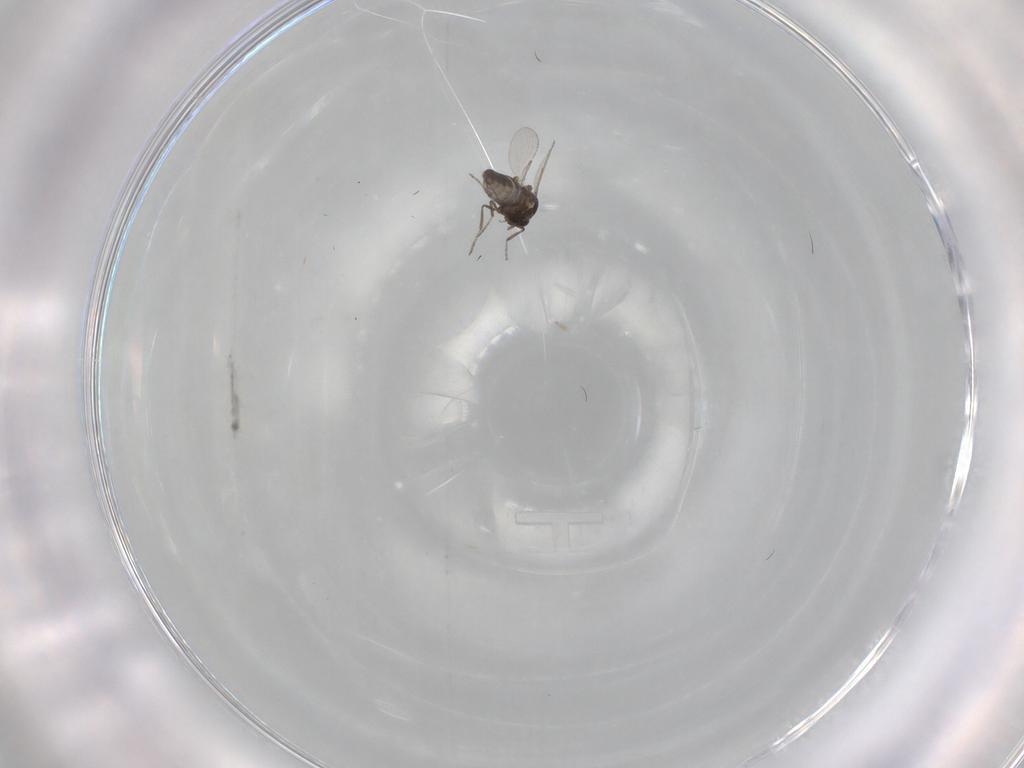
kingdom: Animalia
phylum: Arthropoda
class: Insecta
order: Diptera
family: Ceratopogonidae
